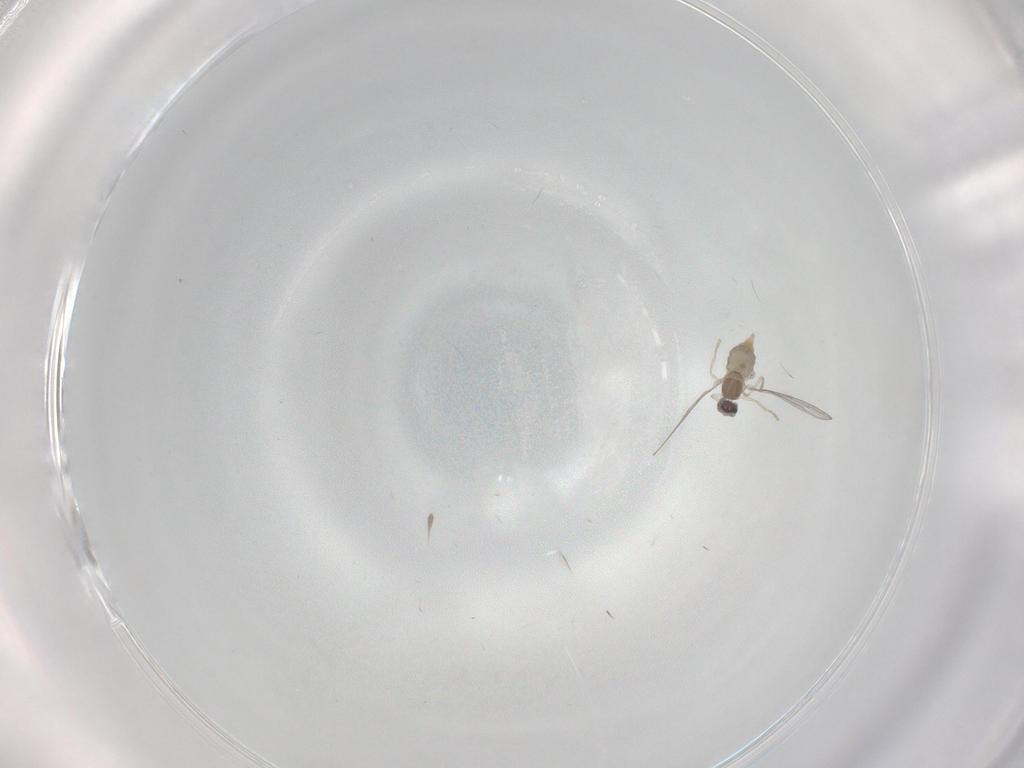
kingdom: Animalia
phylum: Arthropoda
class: Insecta
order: Diptera
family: Cecidomyiidae
